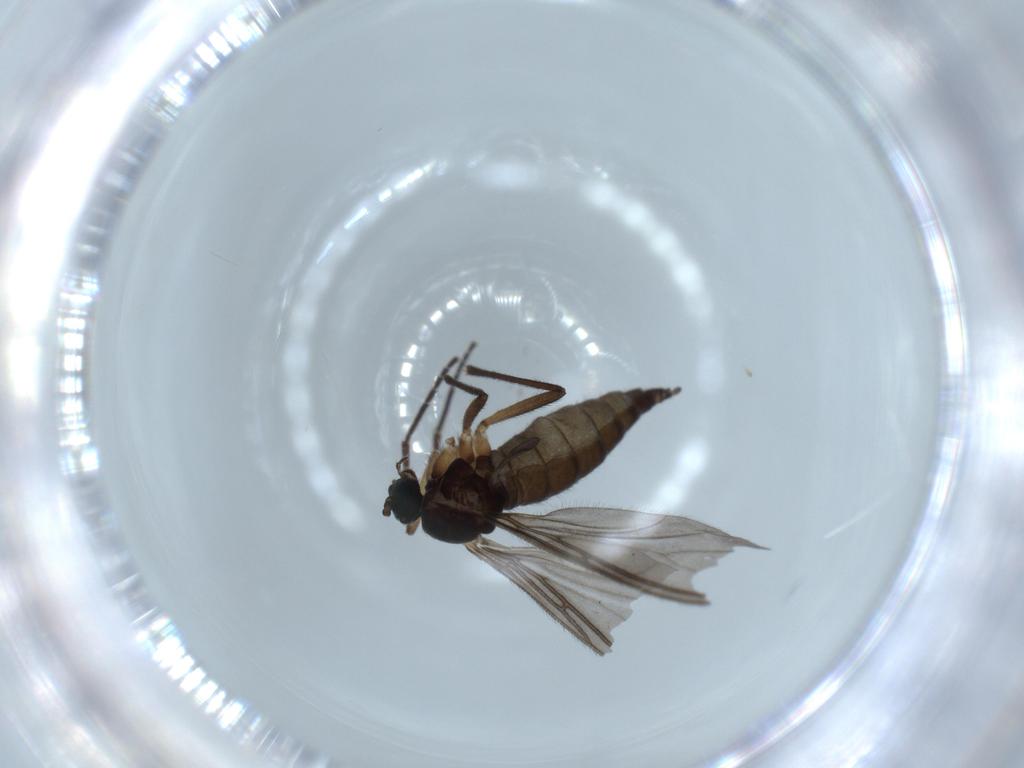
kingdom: Animalia
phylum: Arthropoda
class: Insecta
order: Diptera
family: Sciaridae
